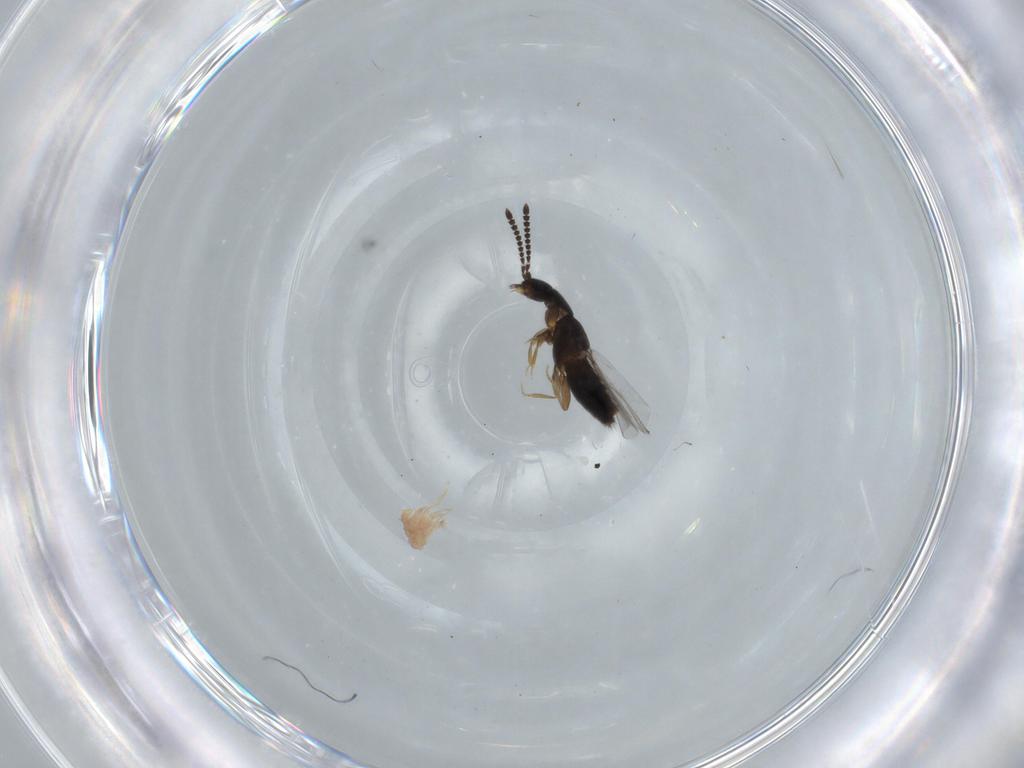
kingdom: Animalia
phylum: Arthropoda
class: Insecta
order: Coleoptera
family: Staphylinidae
